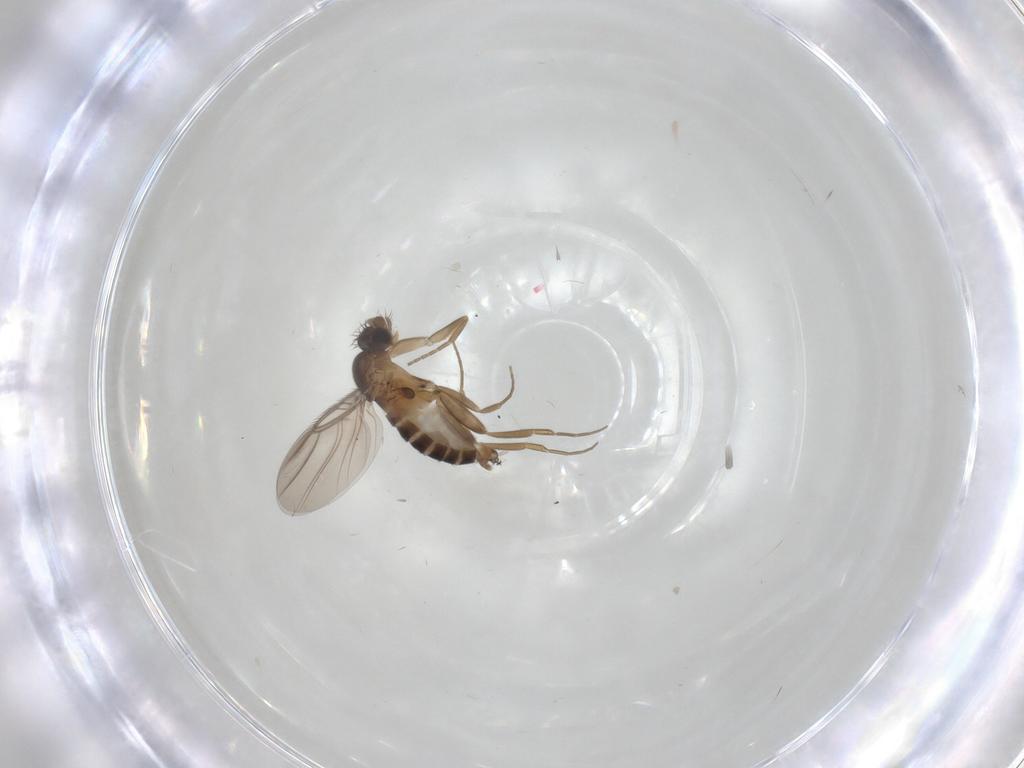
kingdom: Animalia
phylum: Arthropoda
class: Insecta
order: Diptera
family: Phoridae
